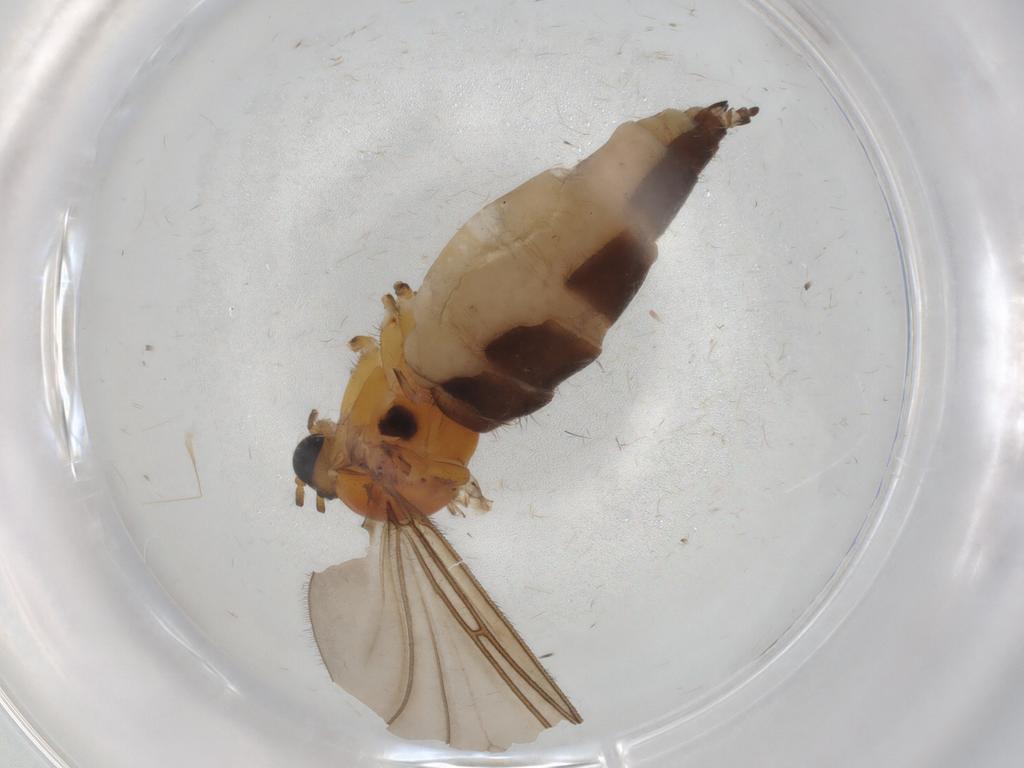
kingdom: Animalia
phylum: Arthropoda
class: Insecta
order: Diptera
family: Sciaridae
